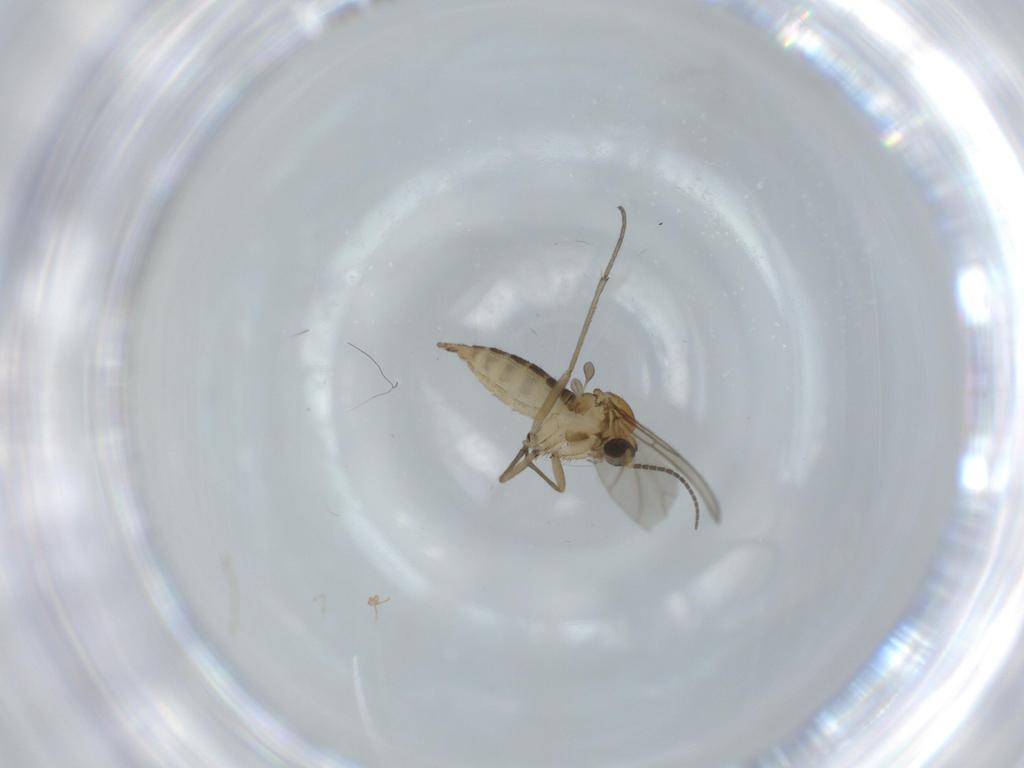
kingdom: Animalia
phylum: Arthropoda
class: Insecta
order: Diptera
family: Sciaridae
